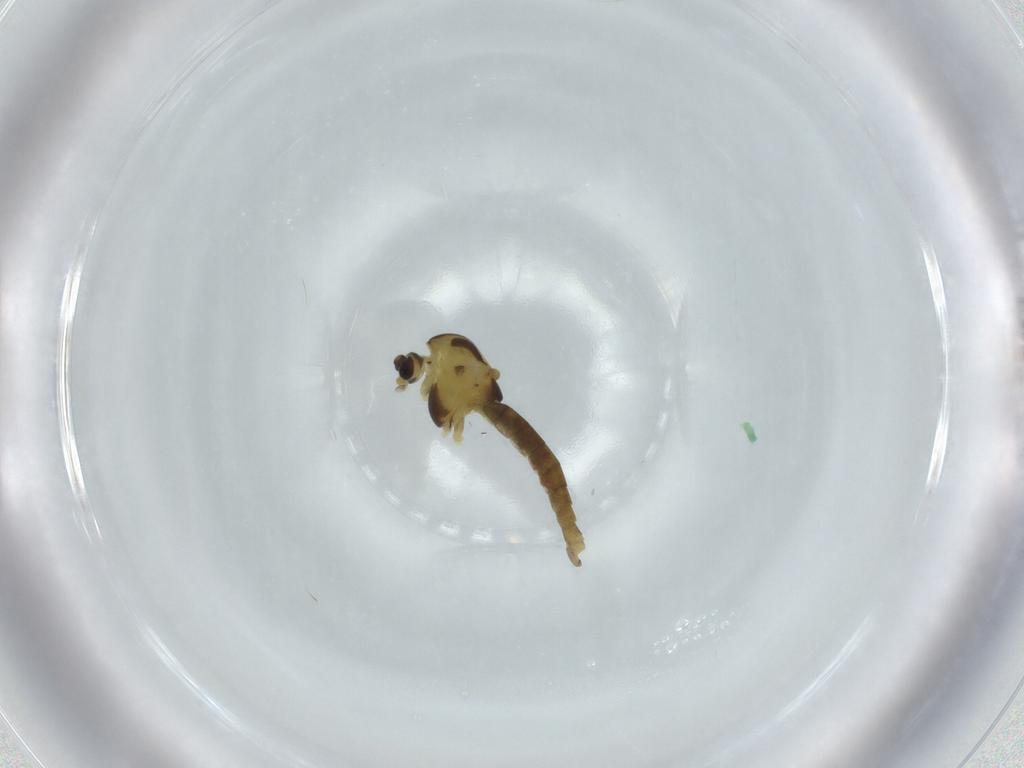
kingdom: Animalia
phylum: Arthropoda
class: Insecta
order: Diptera
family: Chironomidae
